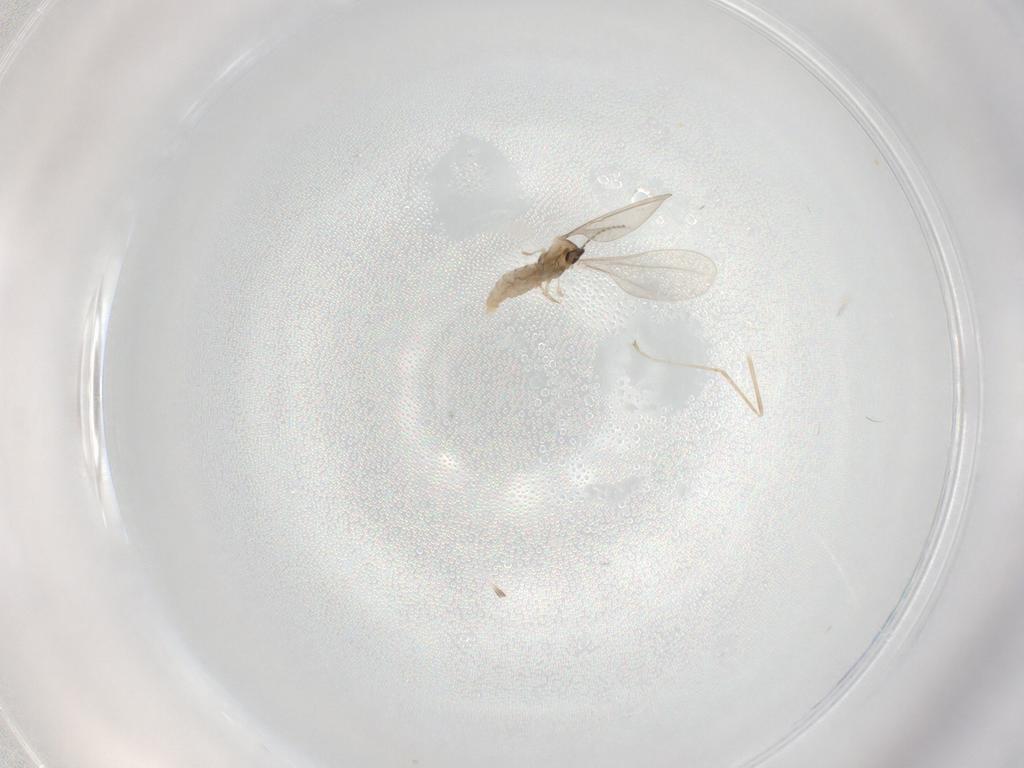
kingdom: Animalia
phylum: Arthropoda
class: Insecta
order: Diptera
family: Cecidomyiidae
